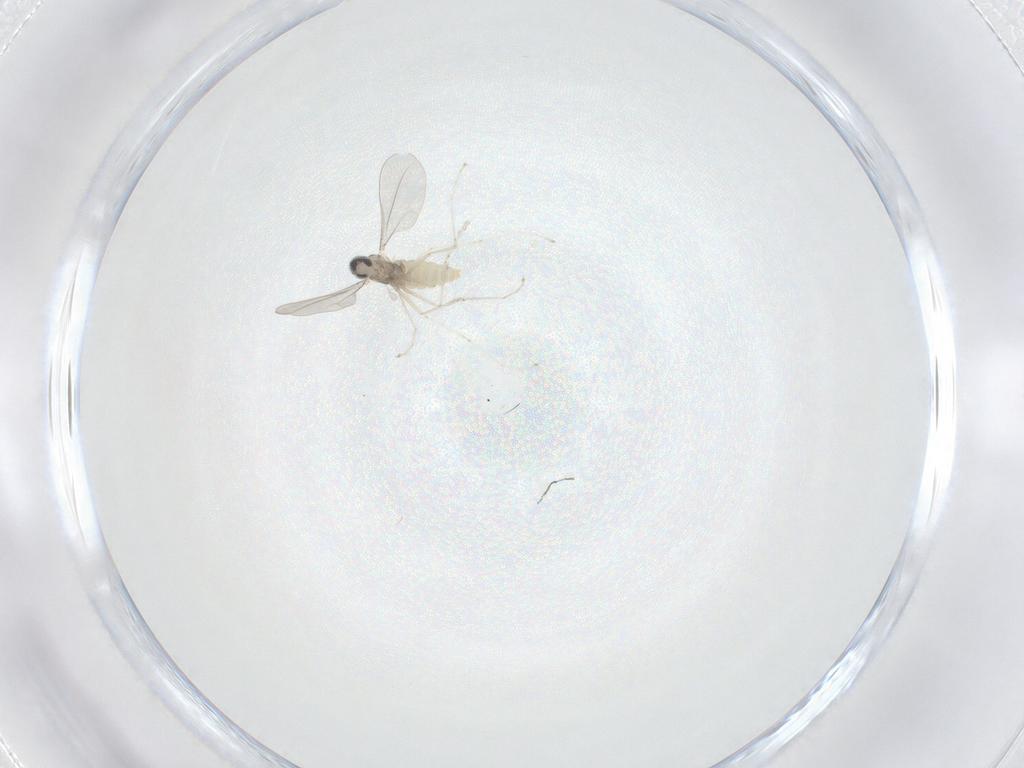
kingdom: Animalia
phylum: Arthropoda
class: Insecta
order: Diptera
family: Cecidomyiidae
